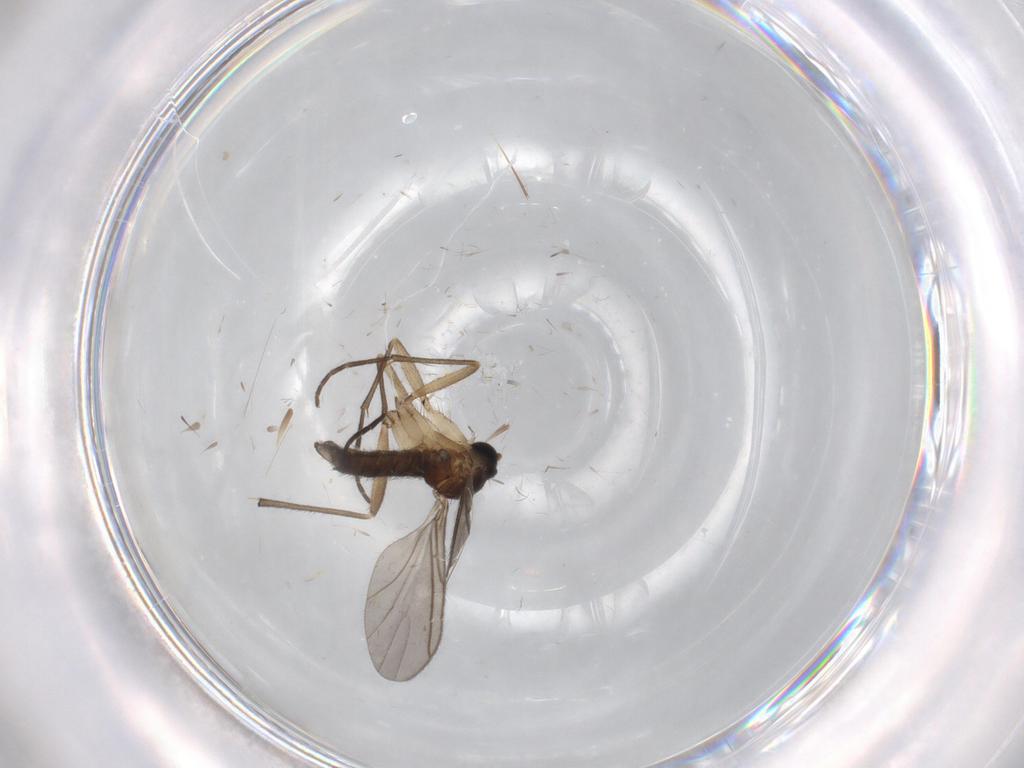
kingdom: Animalia
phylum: Arthropoda
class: Insecta
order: Diptera
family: Sciaridae
